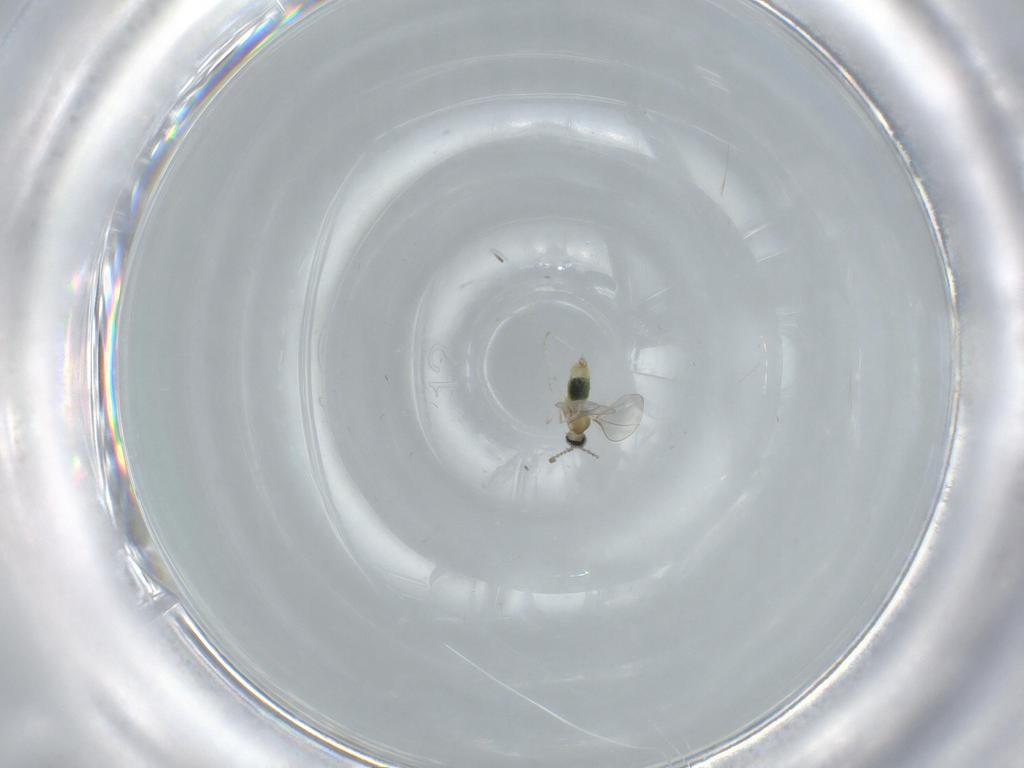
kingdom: Animalia
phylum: Arthropoda
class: Insecta
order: Diptera
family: Cecidomyiidae
